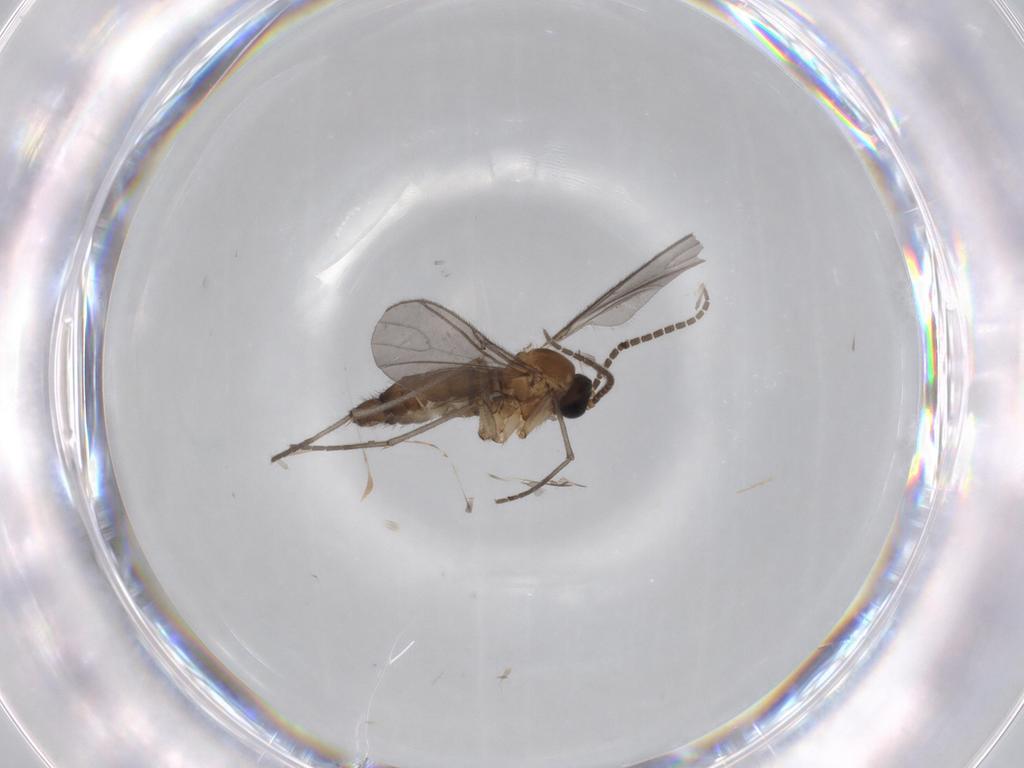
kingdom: Animalia
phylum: Arthropoda
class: Insecta
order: Diptera
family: Sciaridae
